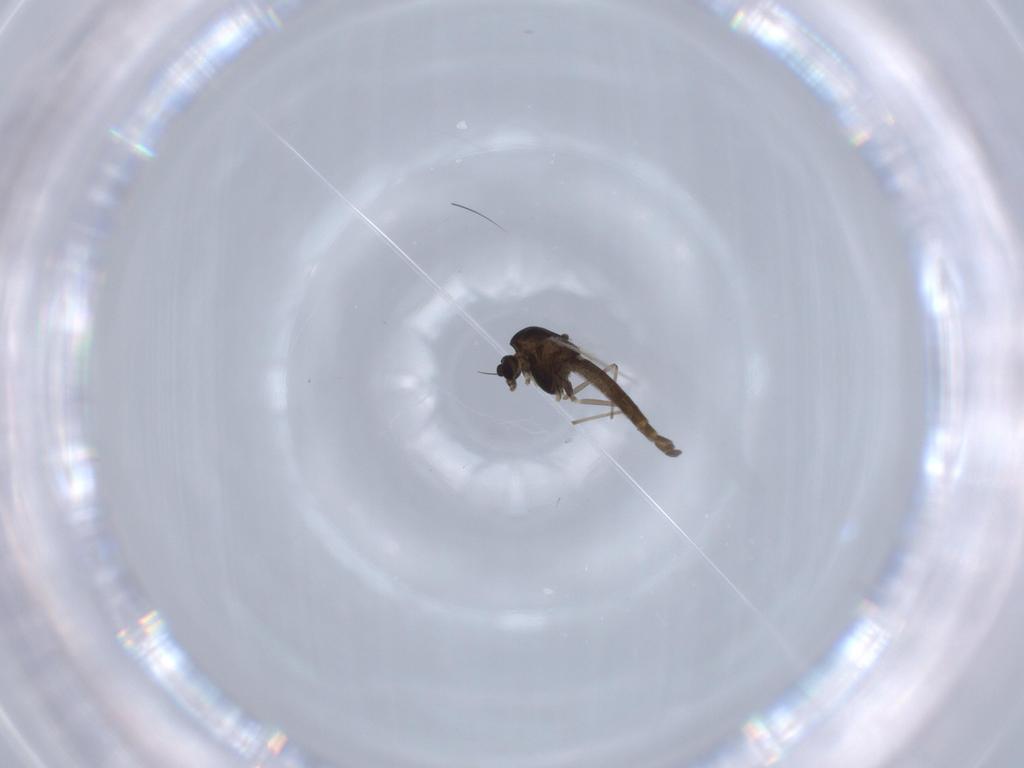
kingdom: Animalia
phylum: Arthropoda
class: Insecta
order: Diptera
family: Chironomidae
